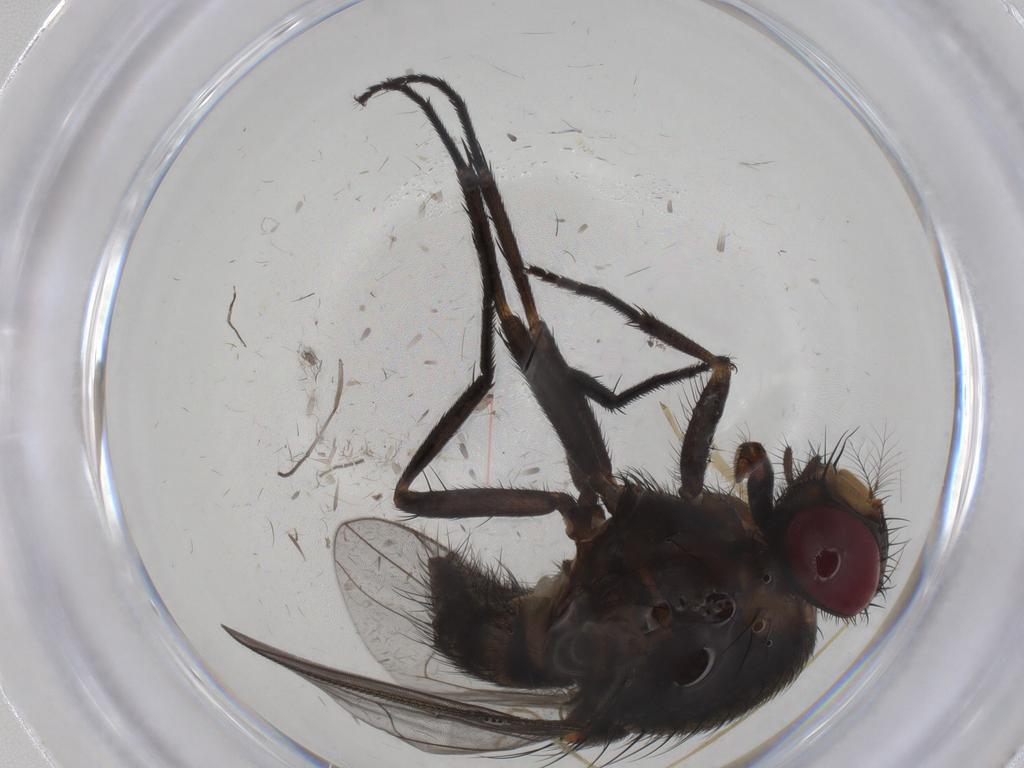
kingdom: Animalia
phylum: Arthropoda
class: Insecta
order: Diptera
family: Muscidae
